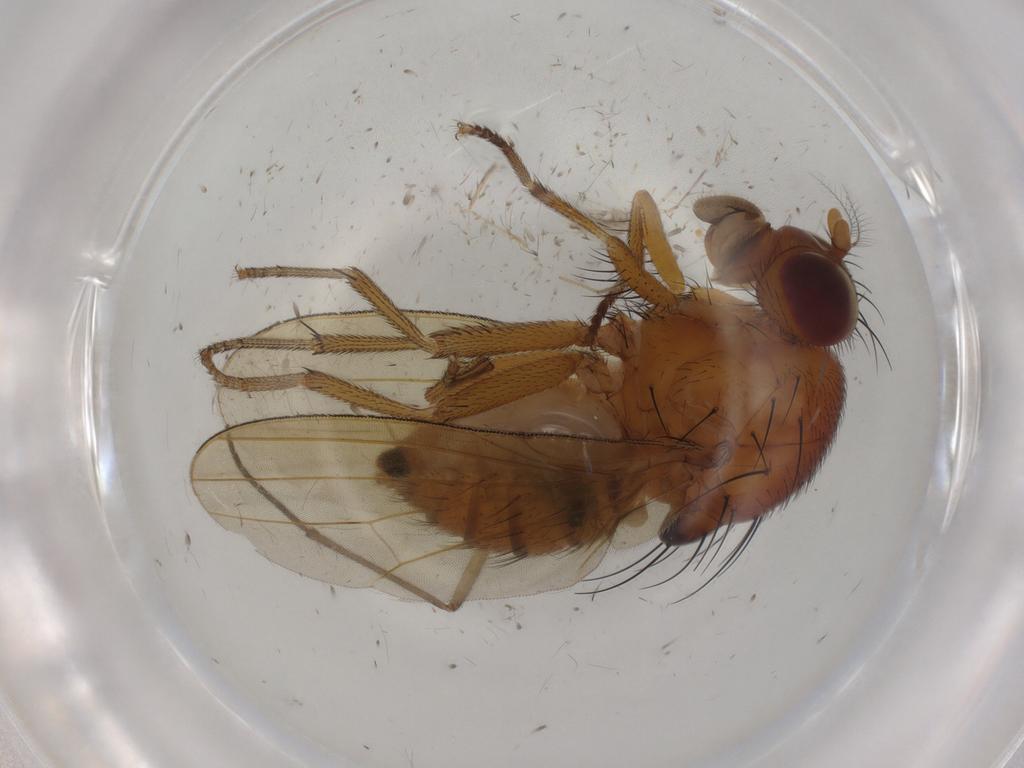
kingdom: Animalia
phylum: Arthropoda
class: Insecta
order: Diptera
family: Sciaridae
